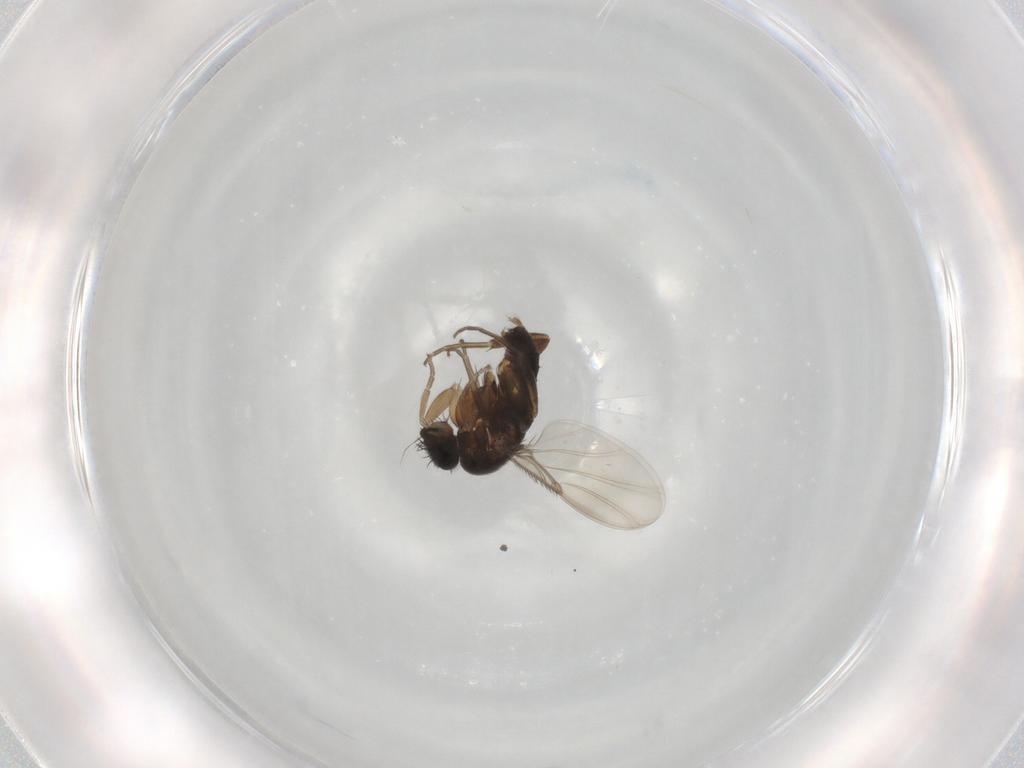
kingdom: Animalia
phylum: Arthropoda
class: Insecta
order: Diptera
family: Phoridae
